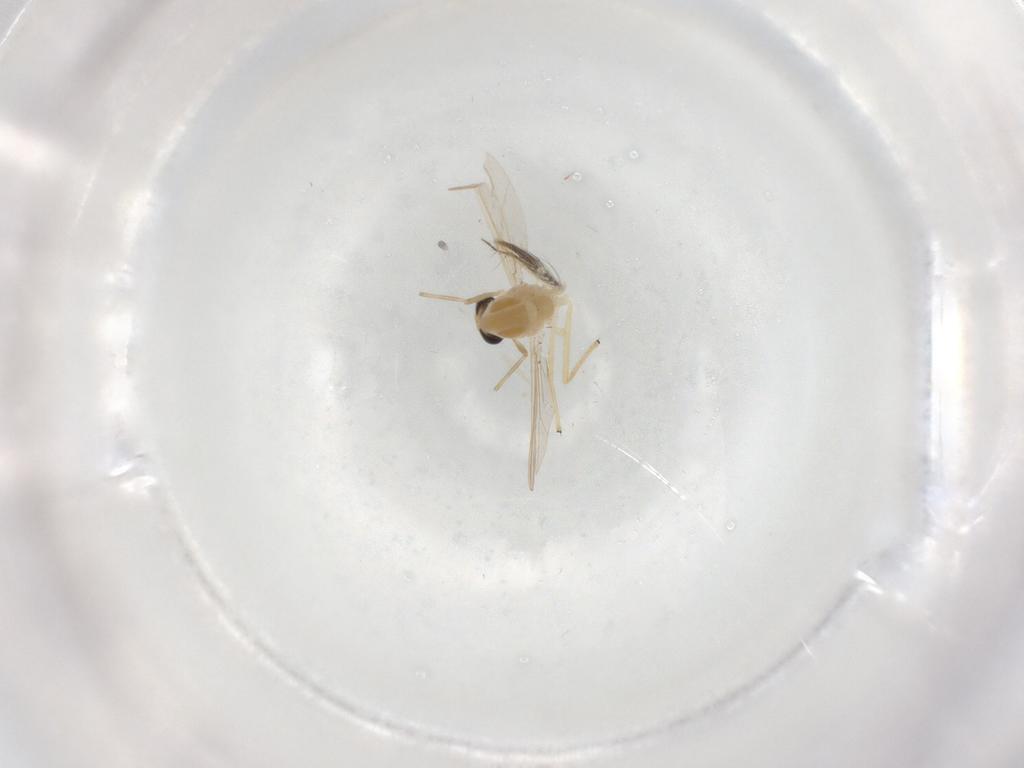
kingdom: Animalia
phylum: Arthropoda
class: Insecta
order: Diptera
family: Chironomidae
